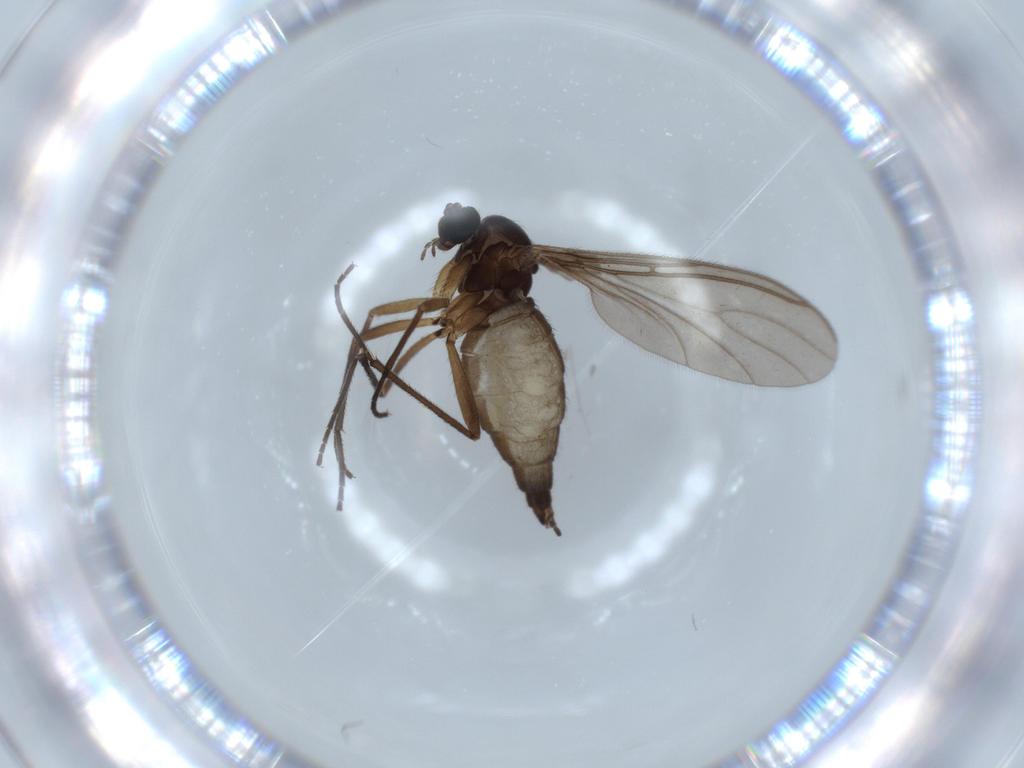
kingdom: Animalia
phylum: Arthropoda
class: Insecta
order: Diptera
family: Sciaridae
